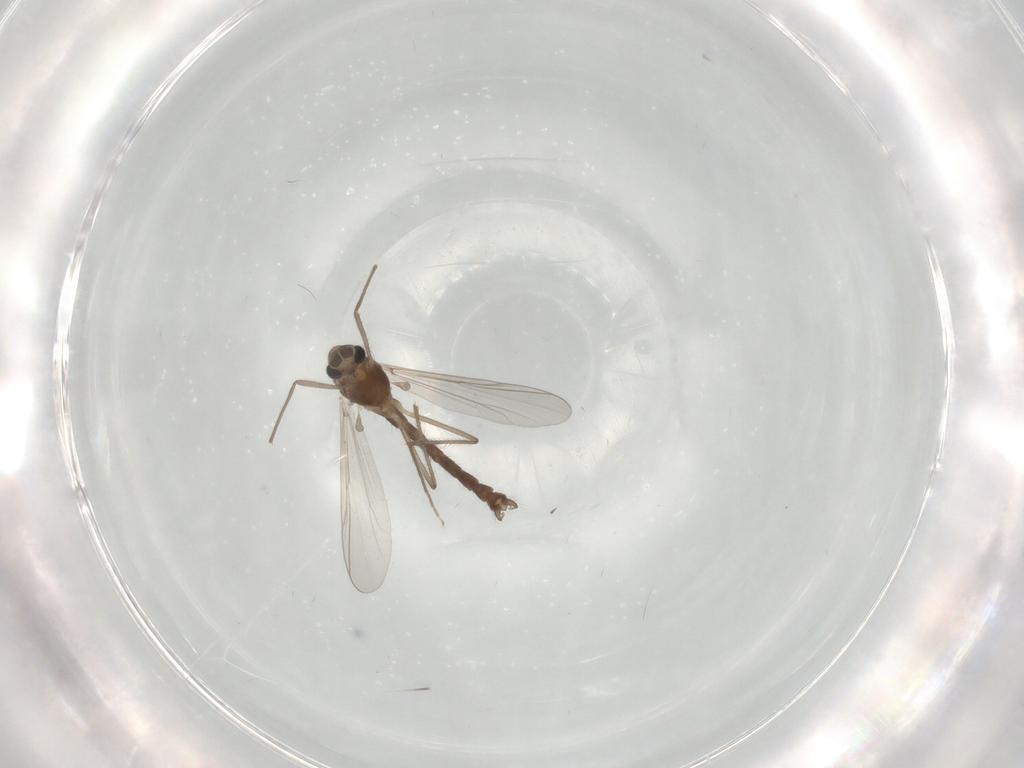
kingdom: Animalia
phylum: Arthropoda
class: Insecta
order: Diptera
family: Chironomidae
